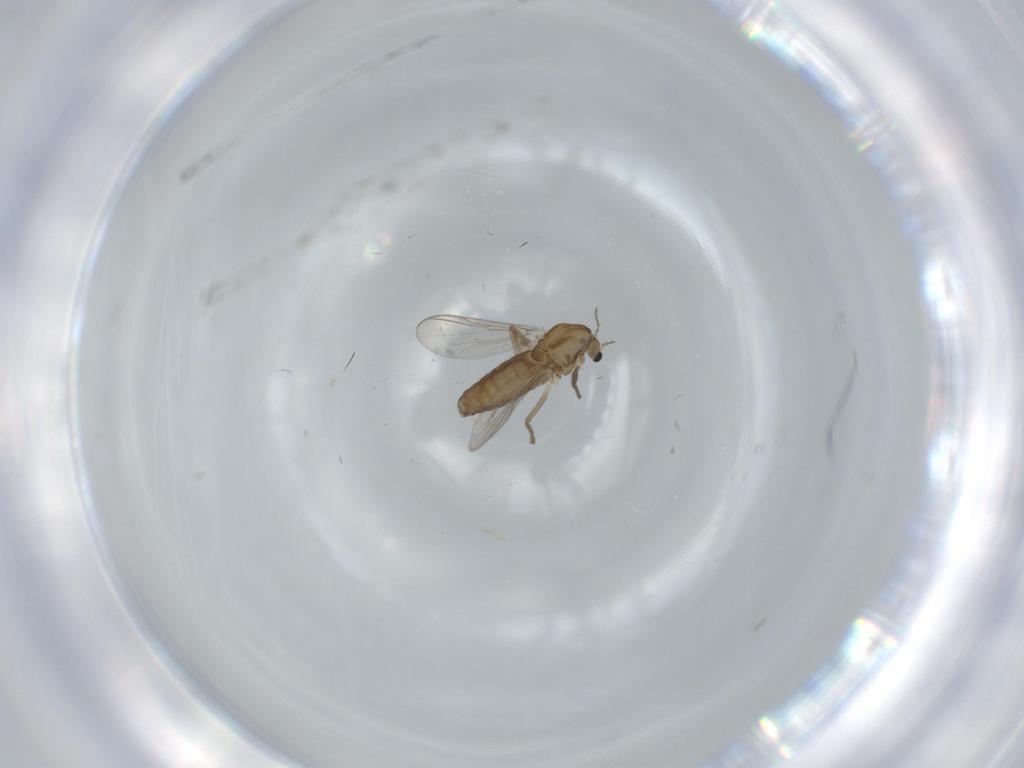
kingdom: Animalia
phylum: Arthropoda
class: Insecta
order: Diptera
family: Chironomidae
